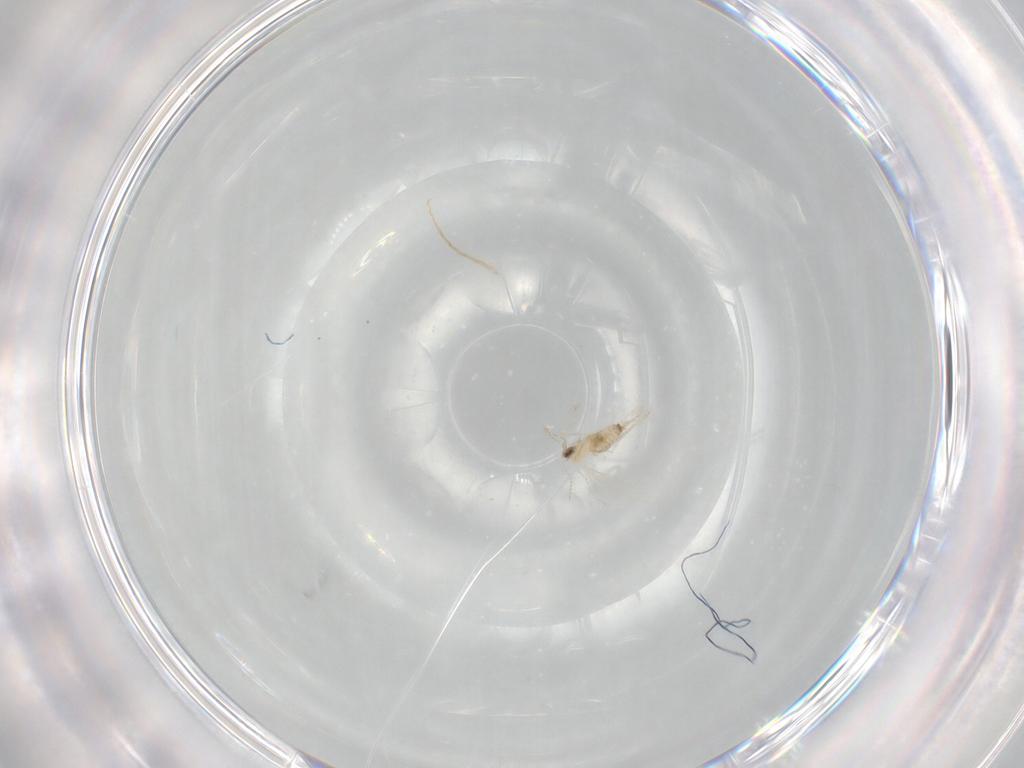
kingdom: Animalia
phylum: Arthropoda
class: Insecta
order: Diptera
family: Cecidomyiidae
